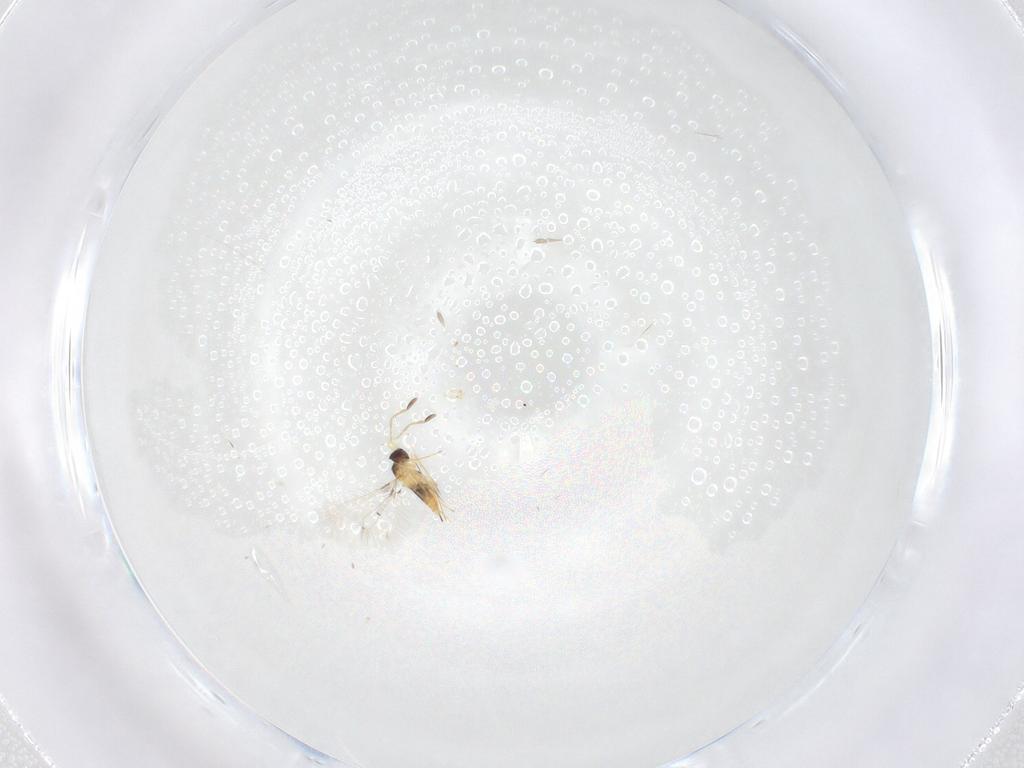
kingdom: Animalia
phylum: Arthropoda
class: Insecta
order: Hymenoptera
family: Mymaridae
